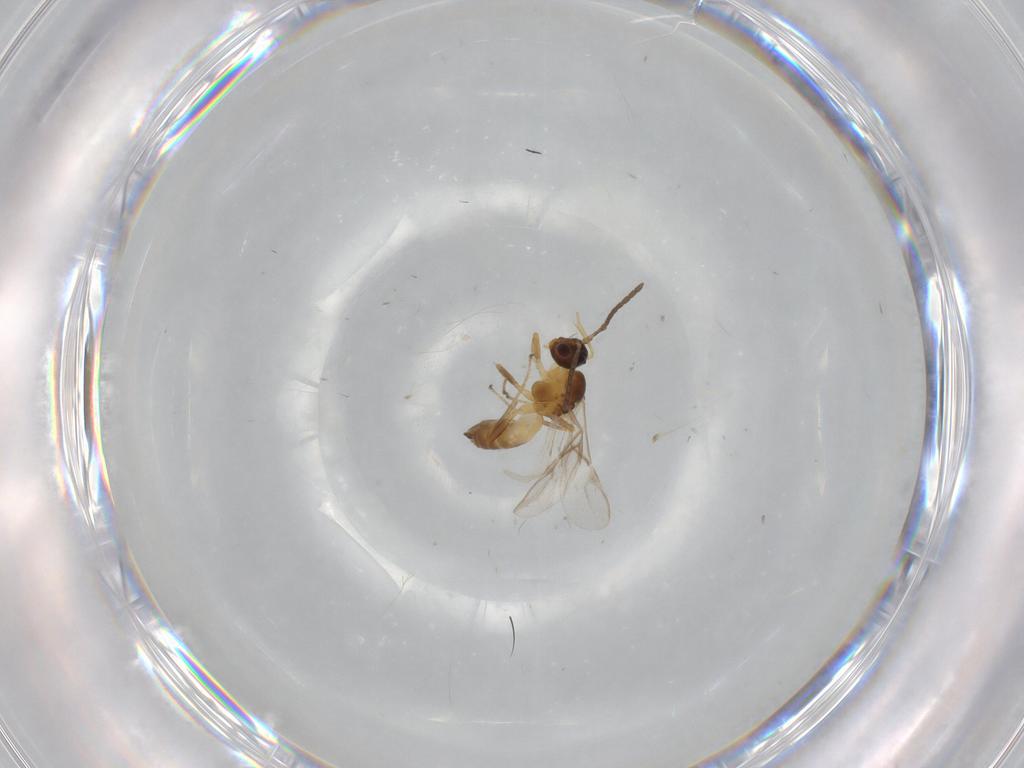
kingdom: Animalia
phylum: Arthropoda
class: Insecta
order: Hymenoptera
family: Braconidae
